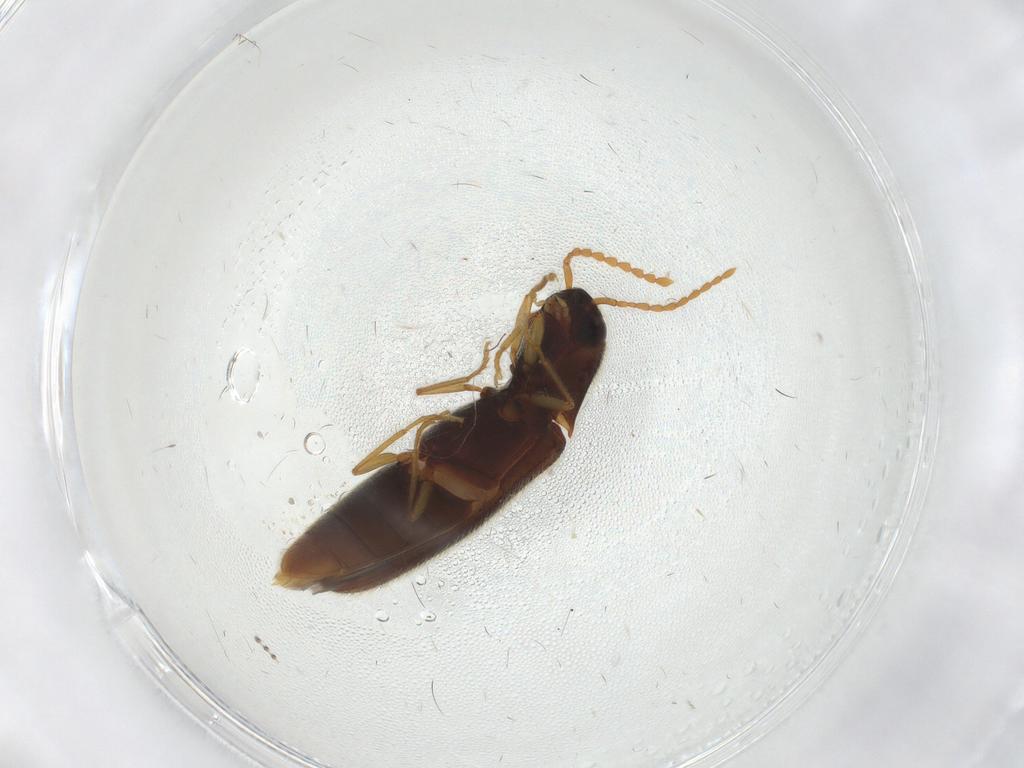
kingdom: Animalia
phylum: Arthropoda
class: Insecta
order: Coleoptera
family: Elateridae
